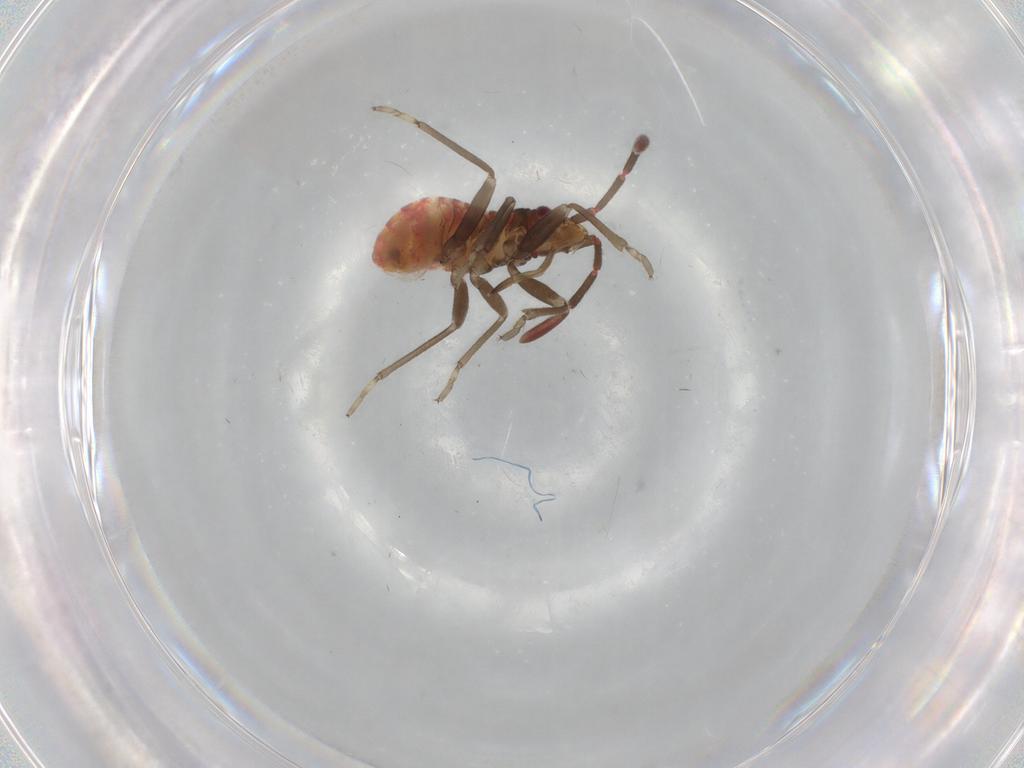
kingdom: Animalia
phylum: Arthropoda
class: Insecta
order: Hemiptera
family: Rhyparochromidae
